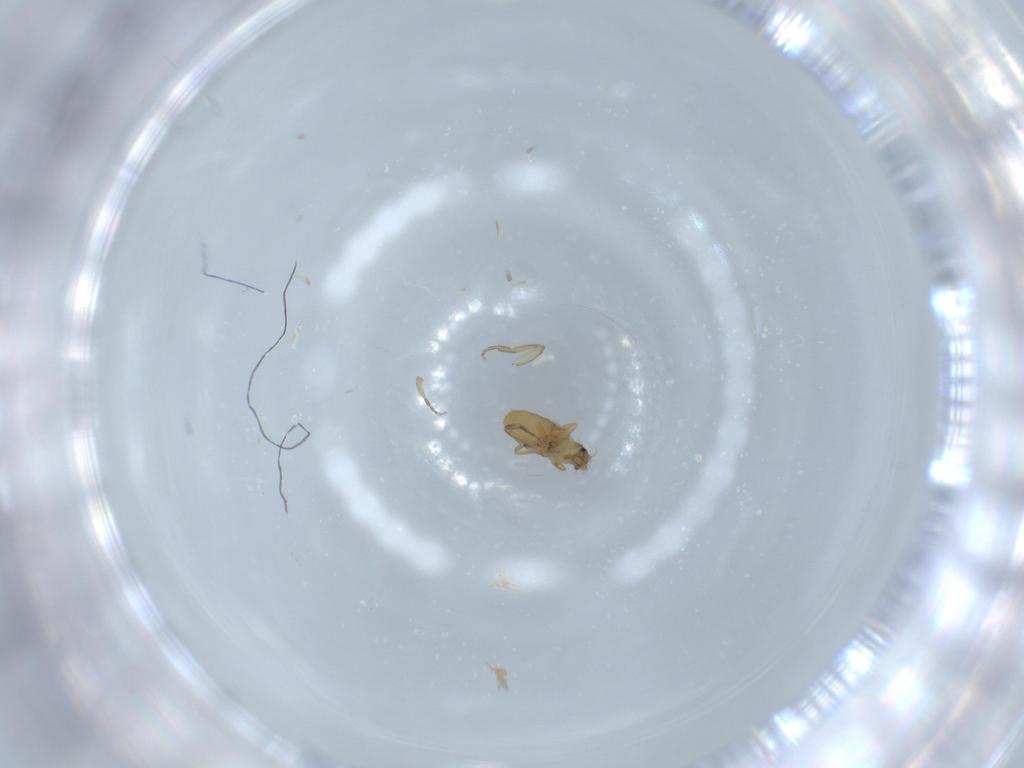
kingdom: Animalia
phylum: Arthropoda
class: Insecta
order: Diptera
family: Phoridae
